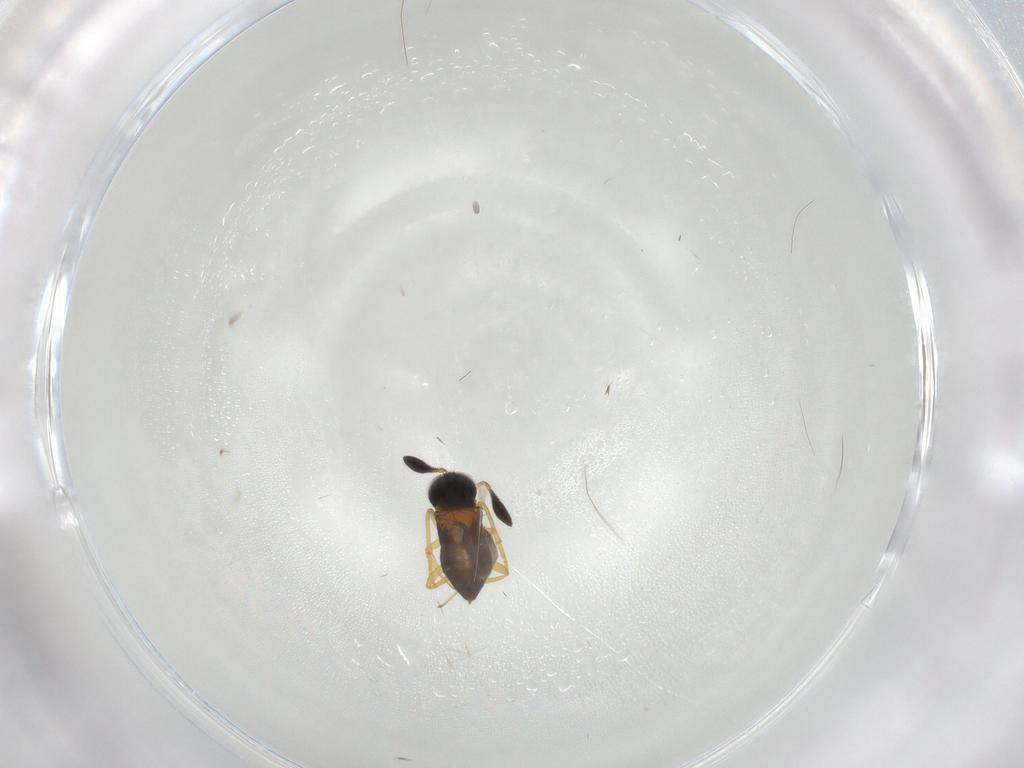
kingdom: Animalia
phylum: Arthropoda
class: Insecta
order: Hymenoptera
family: Encyrtidae
